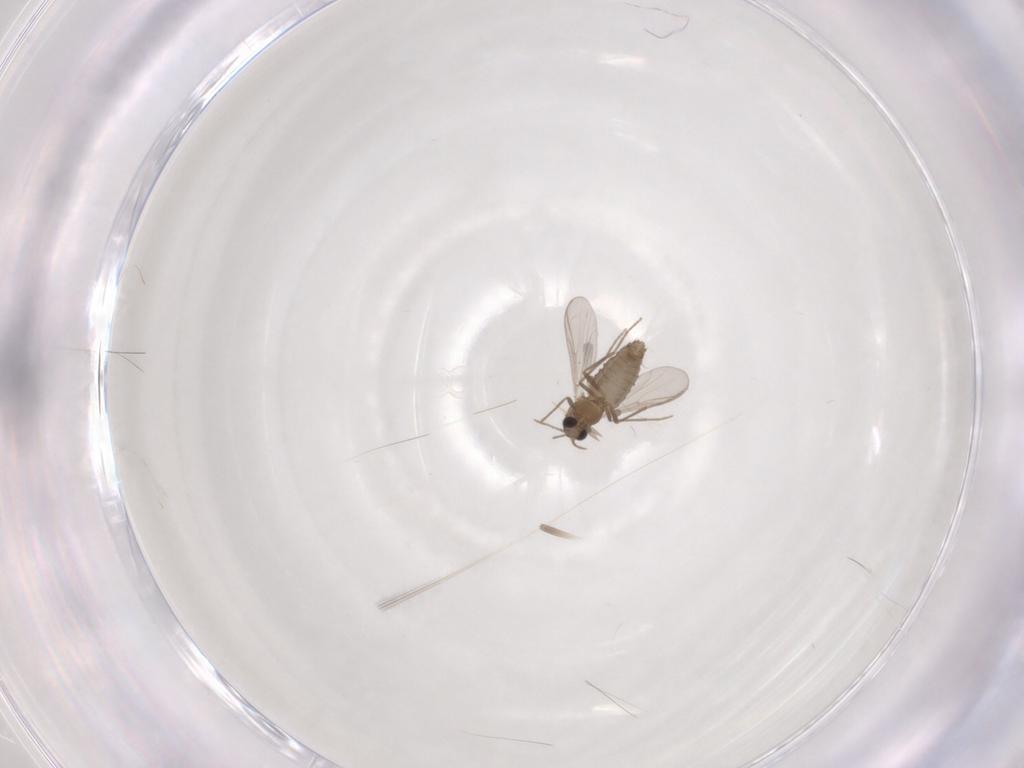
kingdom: Animalia
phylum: Arthropoda
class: Insecta
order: Diptera
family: Chironomidae
